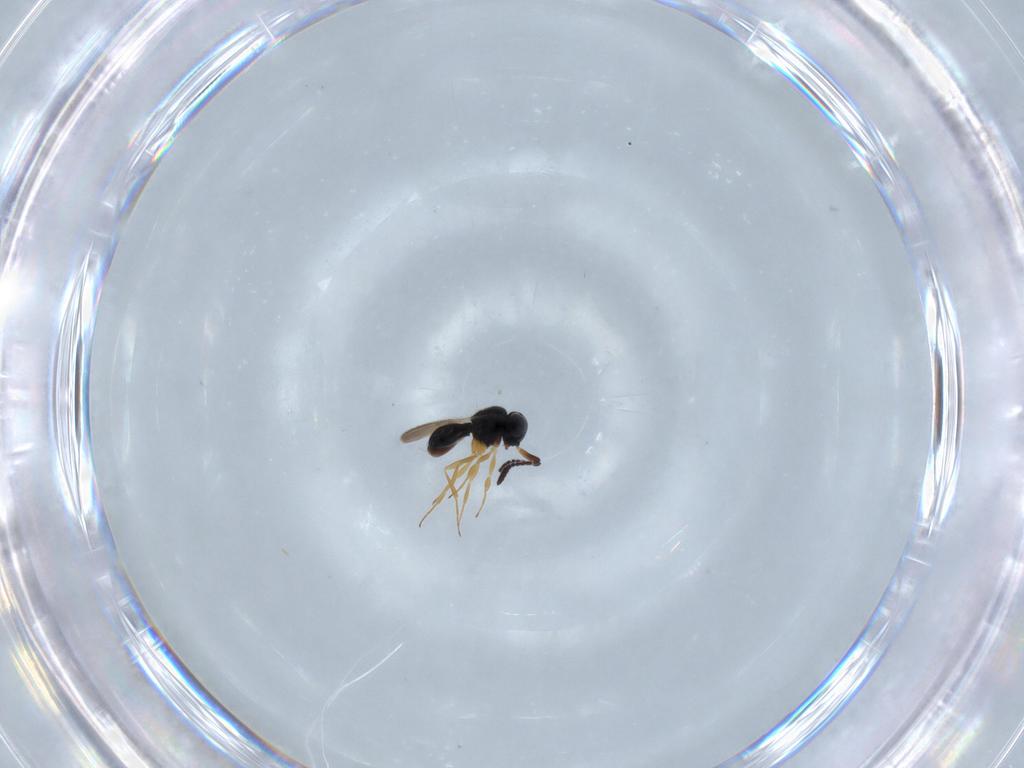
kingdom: Animalia
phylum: Arthropoda
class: Insecta
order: Hymenoptera
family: Scelionidae
